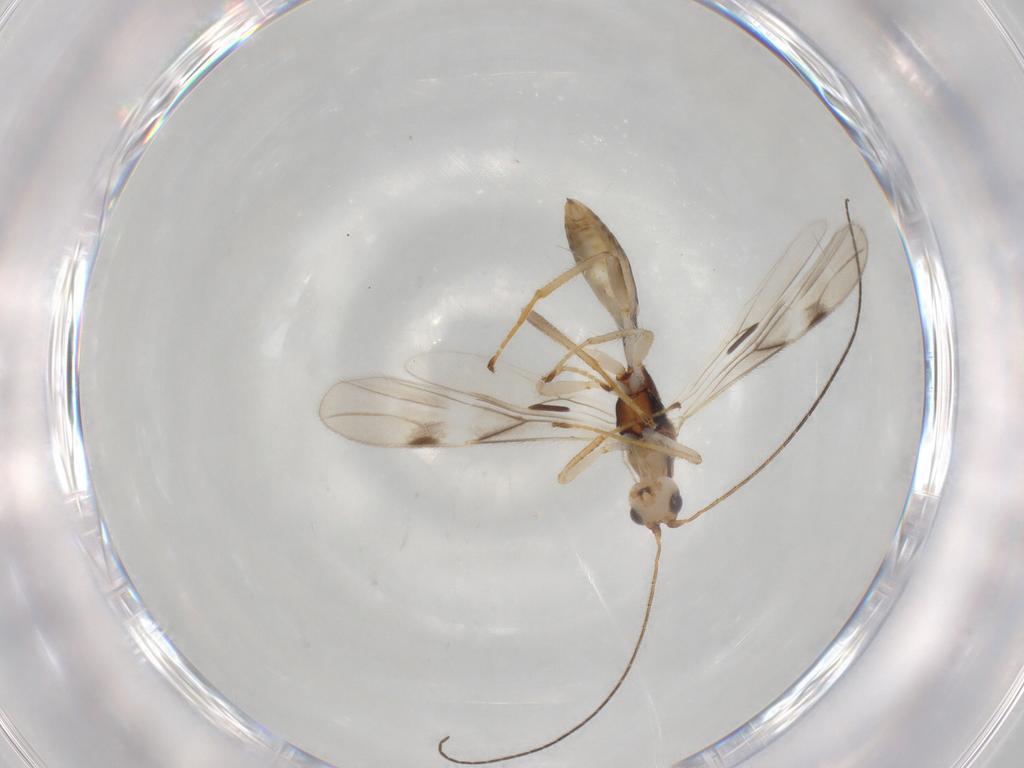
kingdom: Animalia
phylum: Arthropoda
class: Insecta
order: Hymenoptera
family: Braconidae
